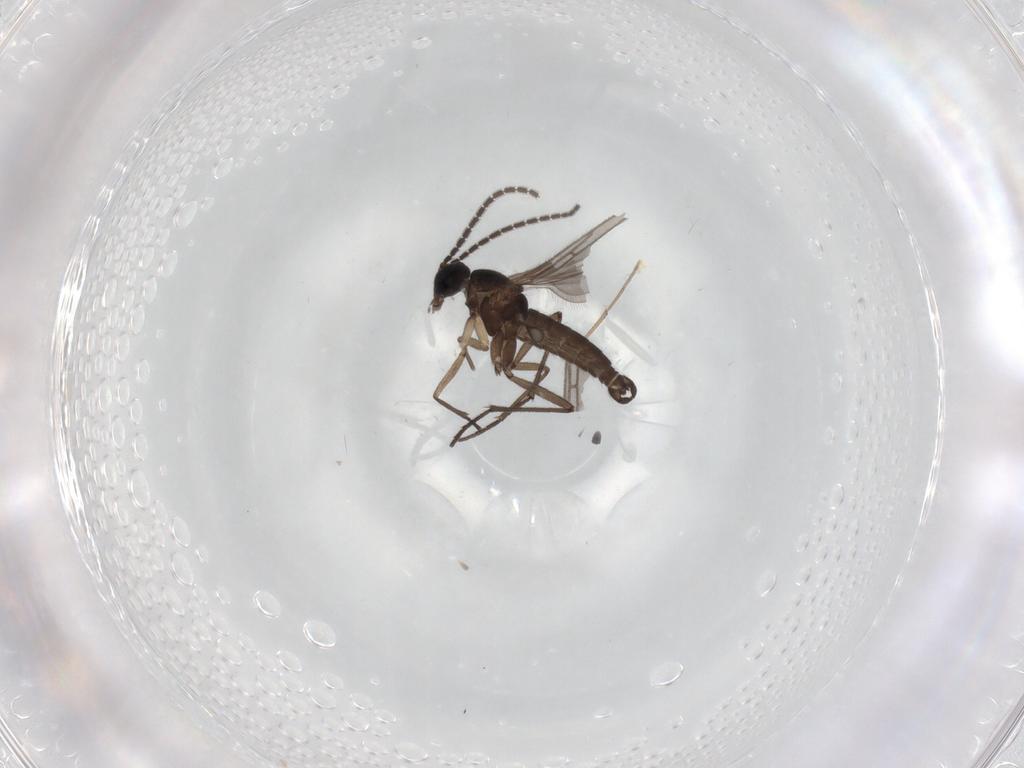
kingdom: Animalia
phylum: Arthropoda
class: Insecta
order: Diptera
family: Sciaridae
